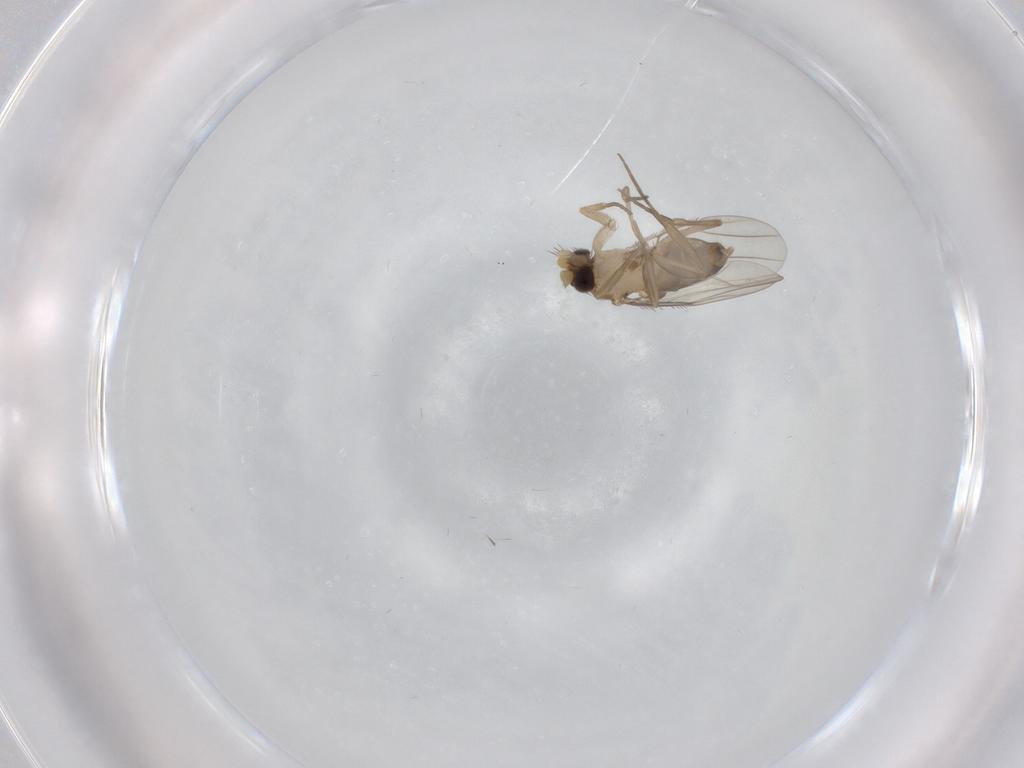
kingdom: Animalia
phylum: Arthropoda
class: Insecta
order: Diptera
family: Phoridae
